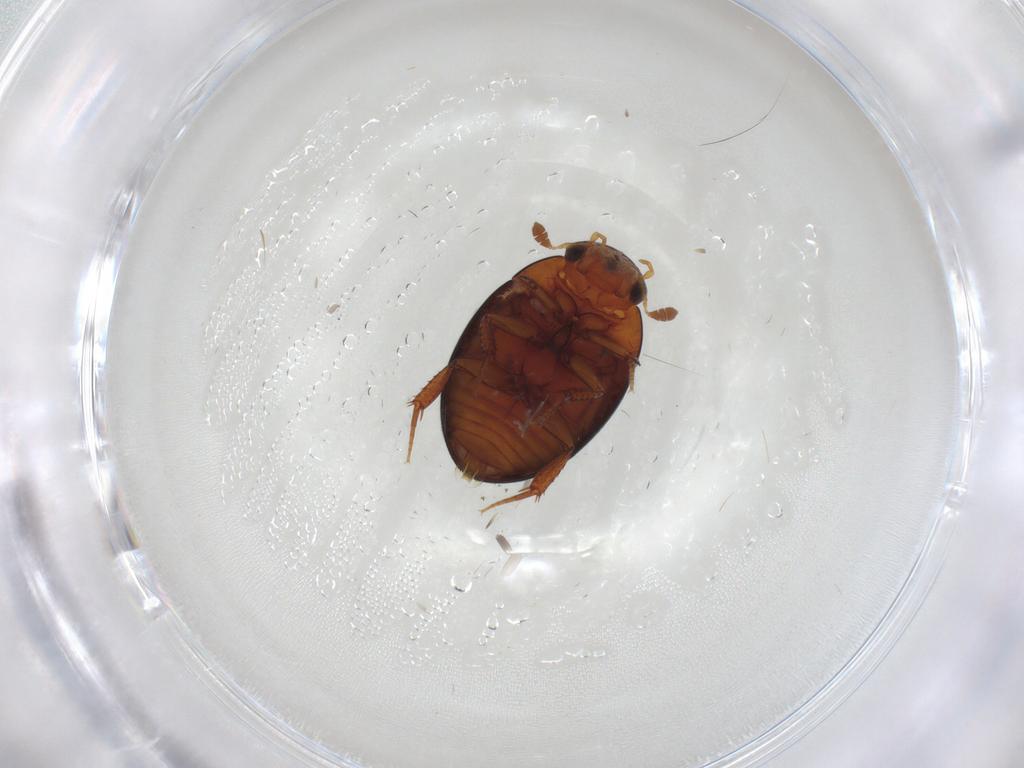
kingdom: Animalia
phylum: Arthropoda
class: Insecta
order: Coleoptera
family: Hydrophilidae
